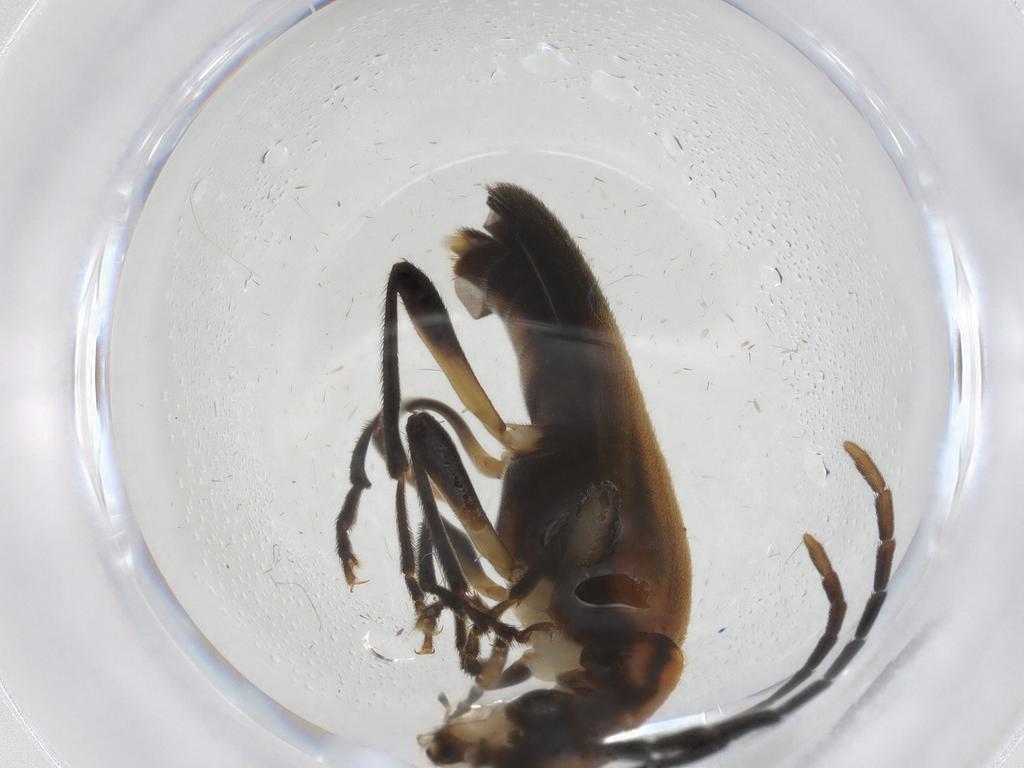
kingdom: Animalia
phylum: Arthropoda
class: Insecta
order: Coleoptera
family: Oedemeridae
